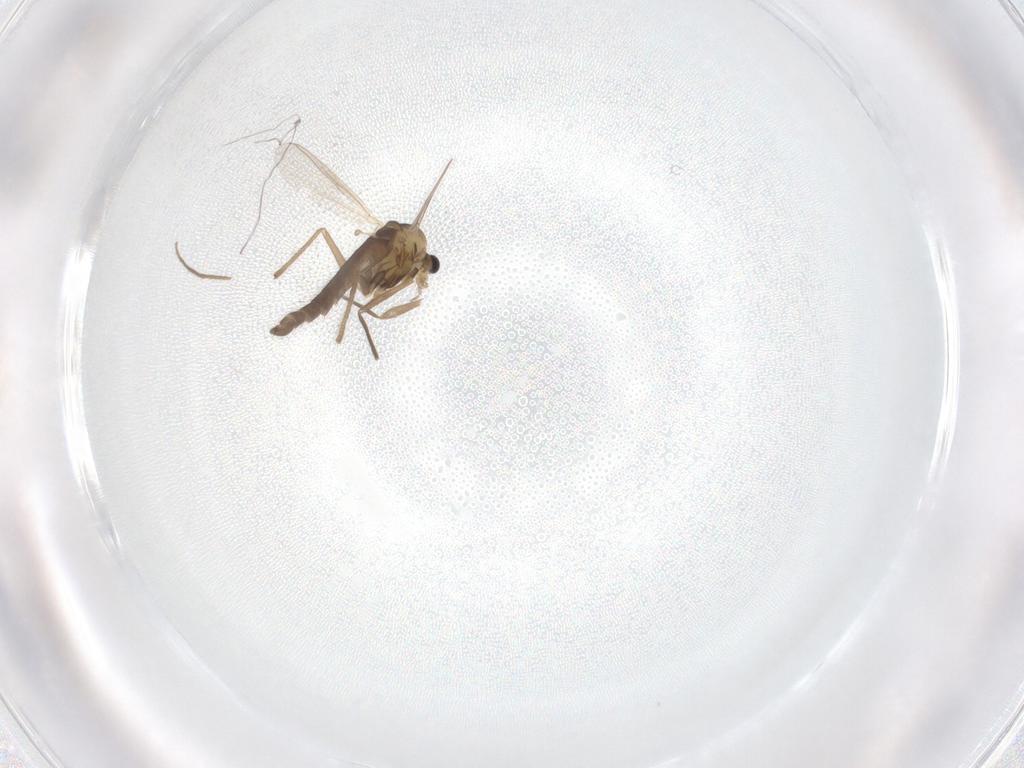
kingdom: Animalia
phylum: Arthropoda
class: Insecta
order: Diptera
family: Chironomidae
